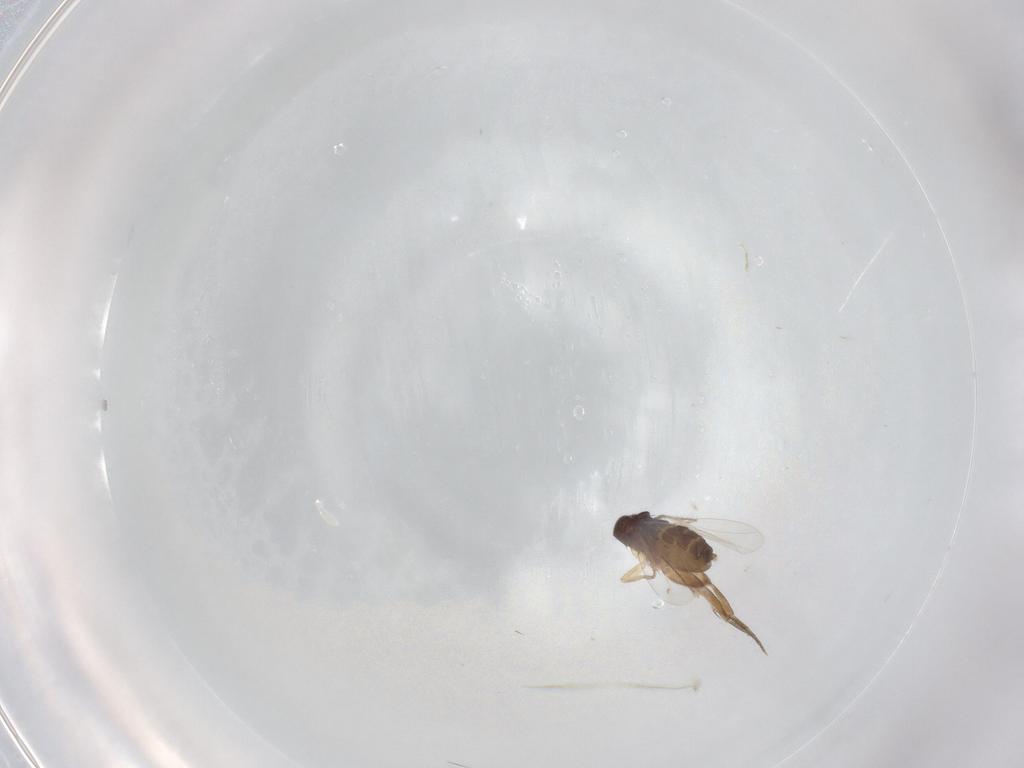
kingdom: Animalia
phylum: Arthropoda
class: Insecta
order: Diptera
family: Phoridae
